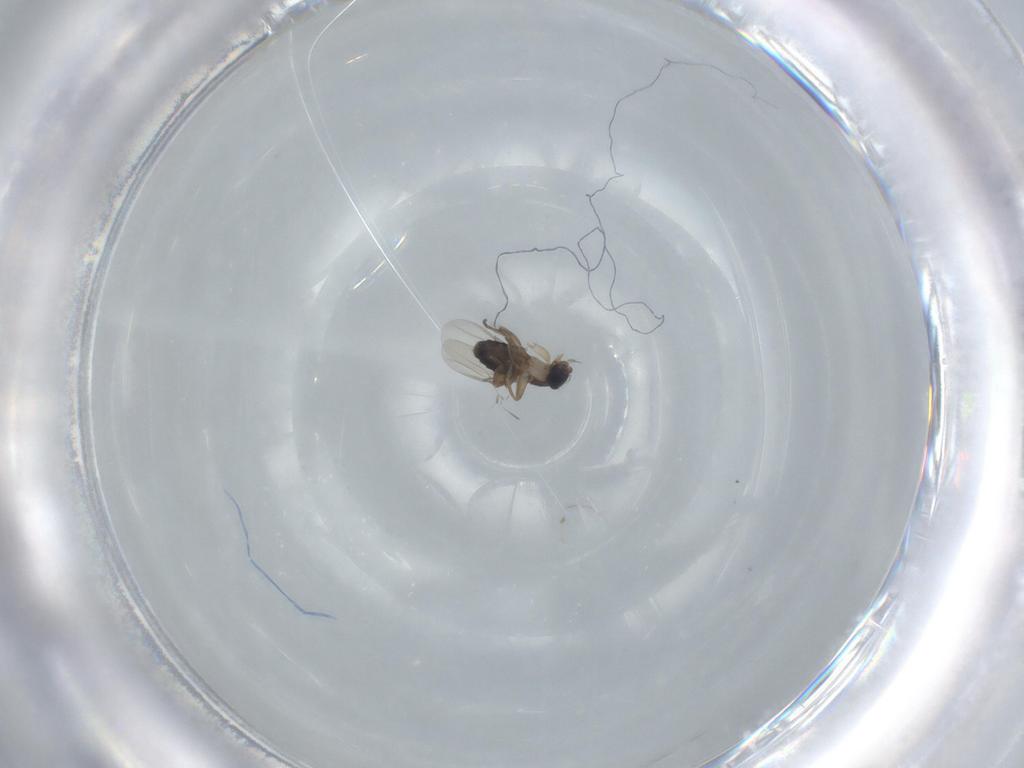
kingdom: Animalia
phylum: Arthropoda
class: Insecta
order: Diptera
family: Phoridae
